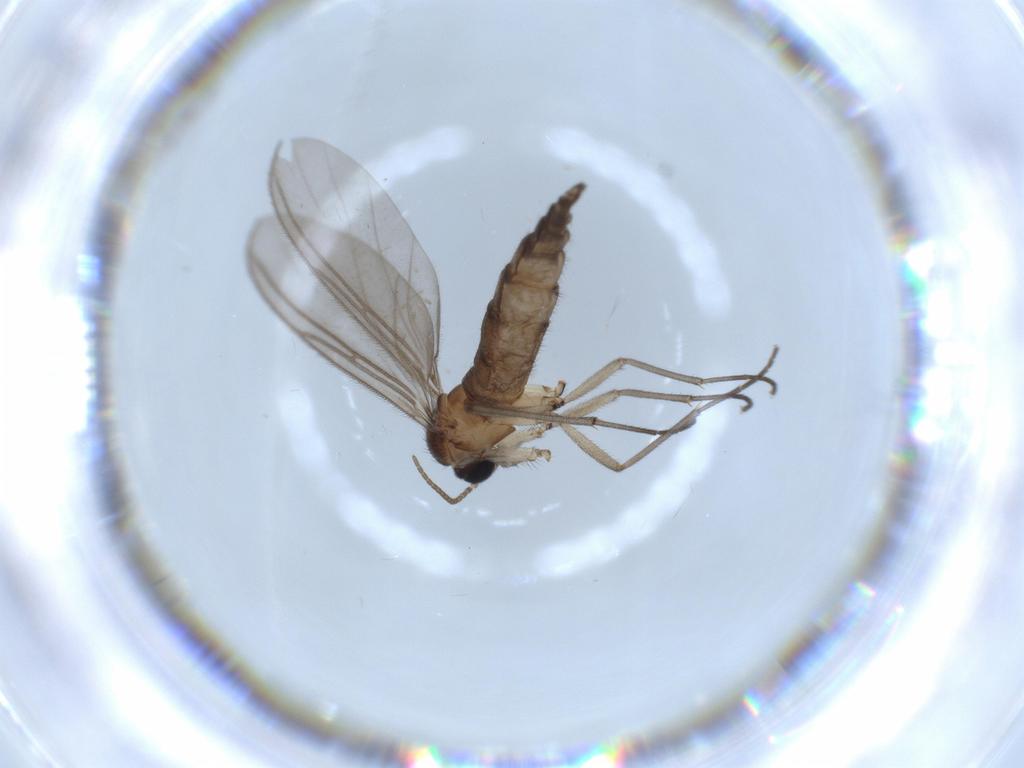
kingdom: Animalia
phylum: Arthropoda
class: Insecta
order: Diptera
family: Sciaridae
